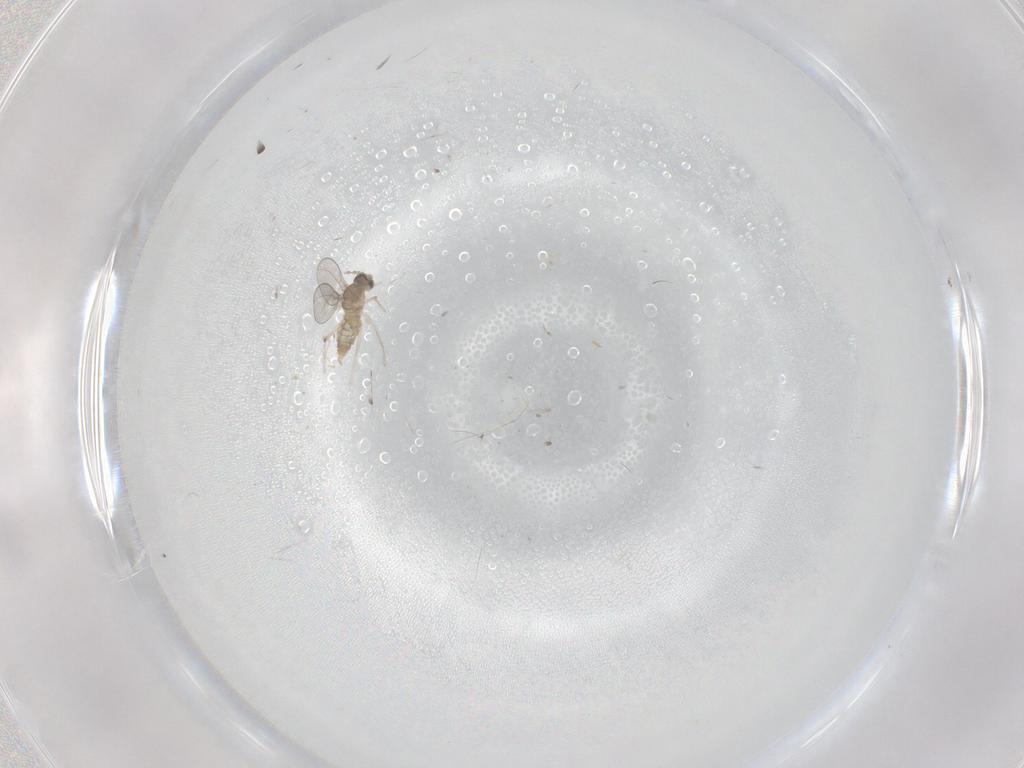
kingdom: Animalia
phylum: Arthropoda
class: Insecta
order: Diptera
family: Cecidomyiidae
